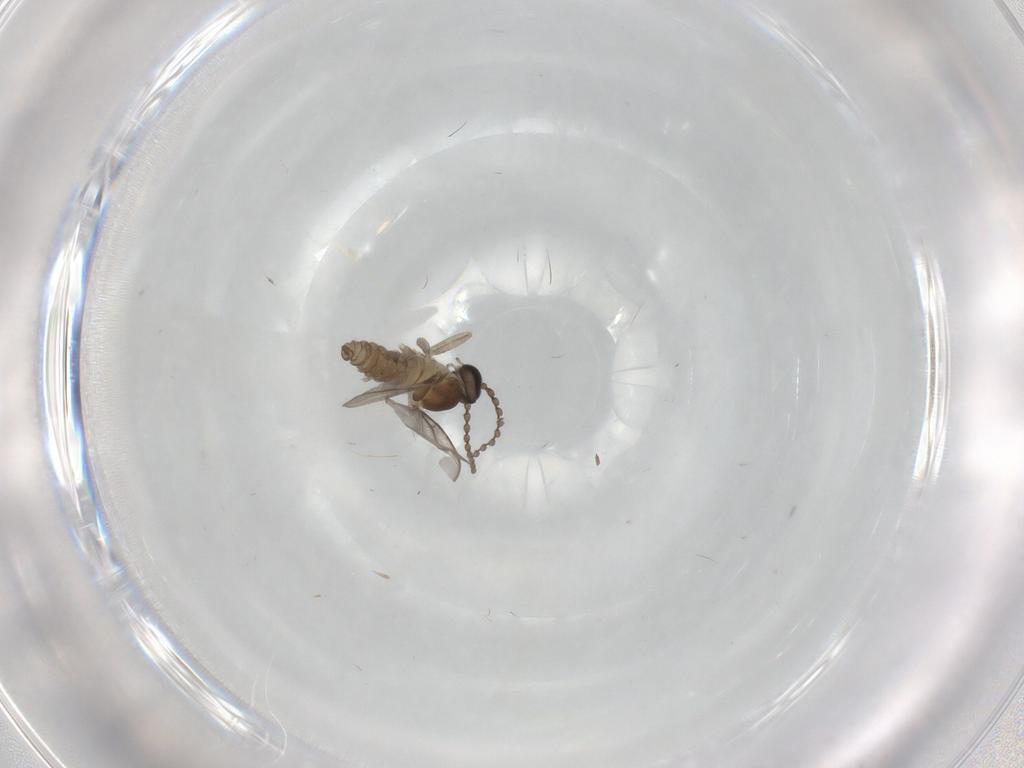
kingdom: Animalia
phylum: Arthropoda
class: Insecta
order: Diptera
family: Cecidomyiidae
